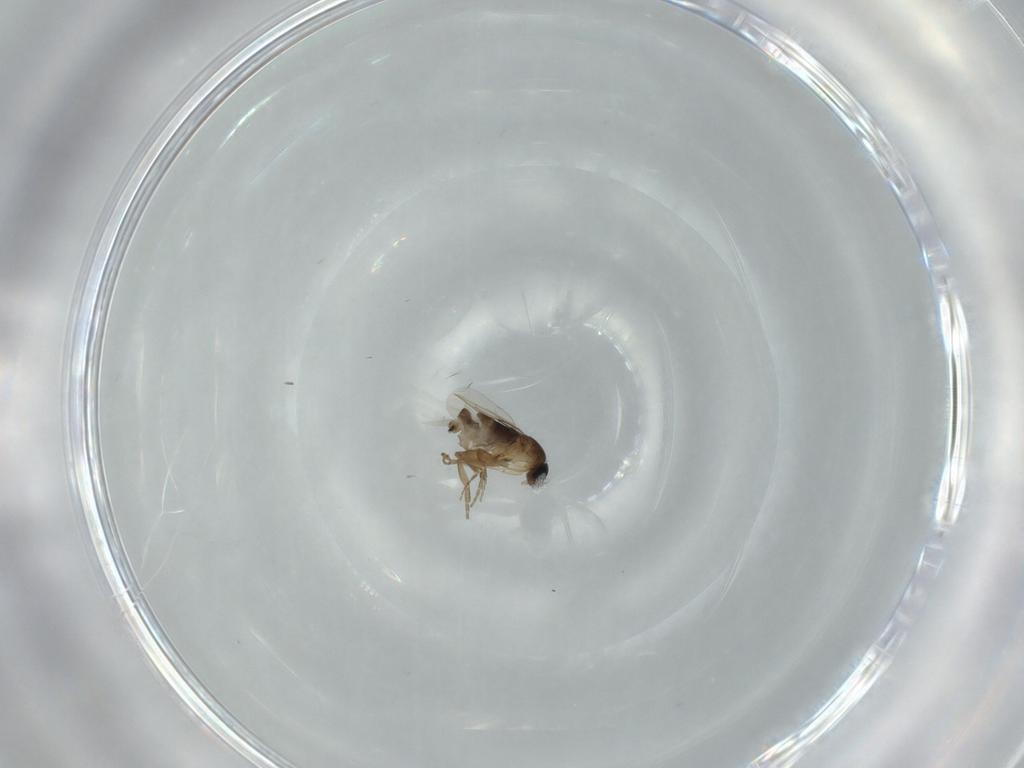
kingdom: Animalia
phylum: Arthropoda
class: Insecta
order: Diptera
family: Phoridae
